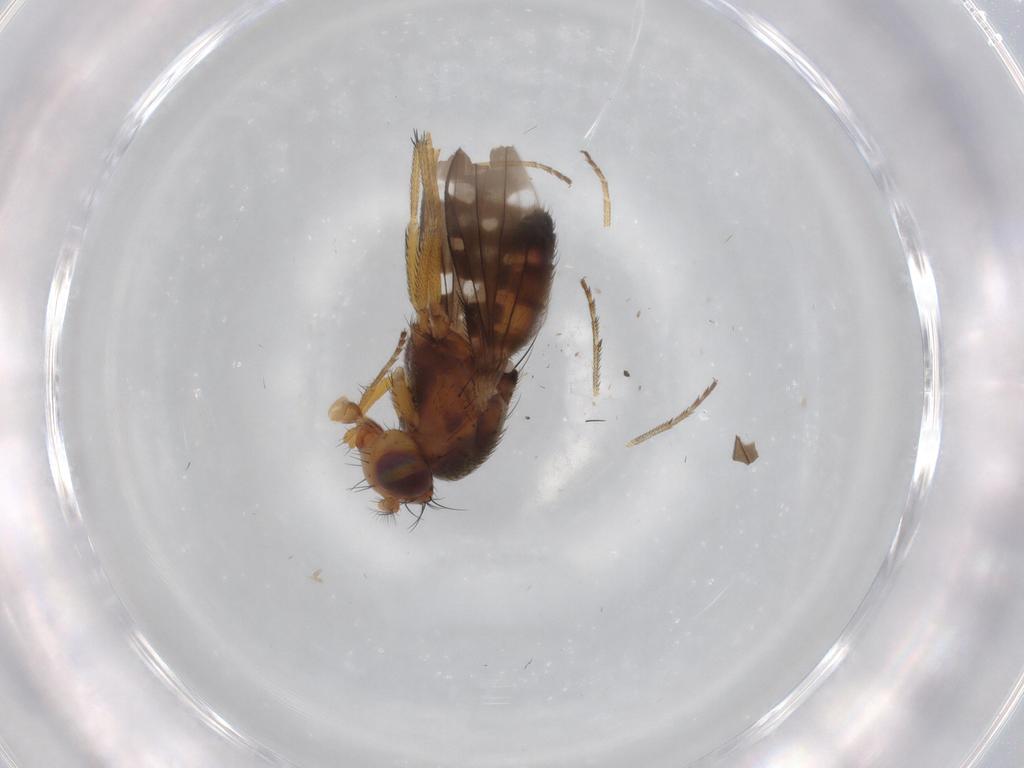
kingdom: Animalia
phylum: Arthropoda
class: Insecta
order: Diptera
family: Dolichopodidae
